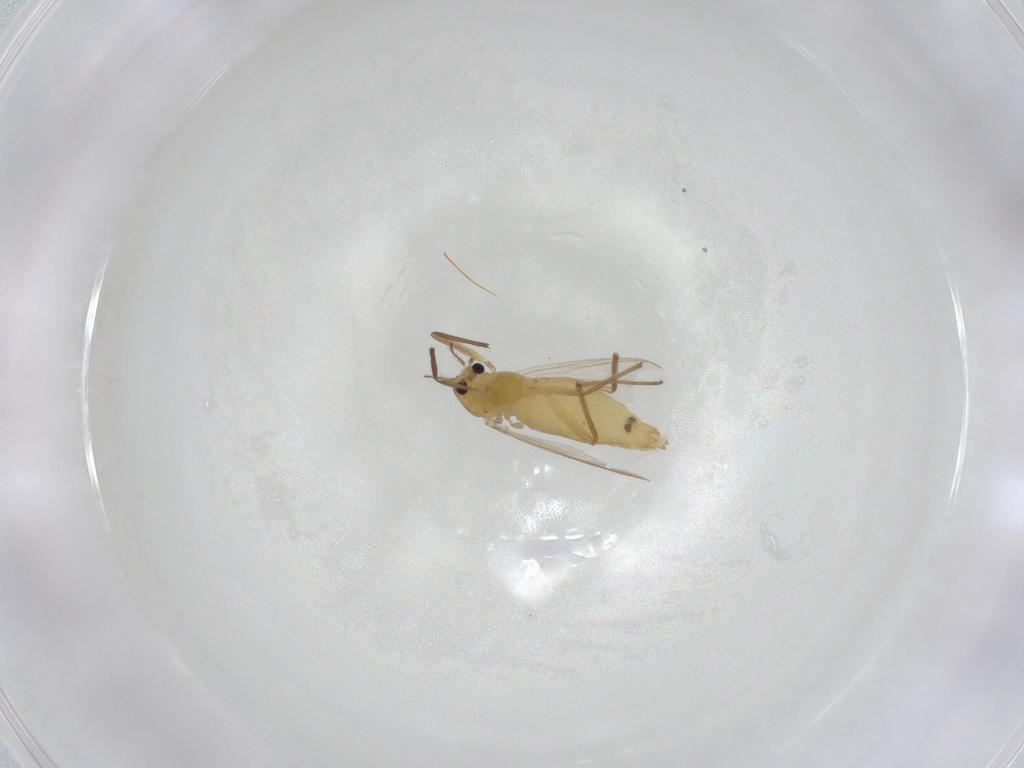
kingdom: Animalia
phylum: Arthropoda
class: Insecta
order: Diptera
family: Chironomidae
